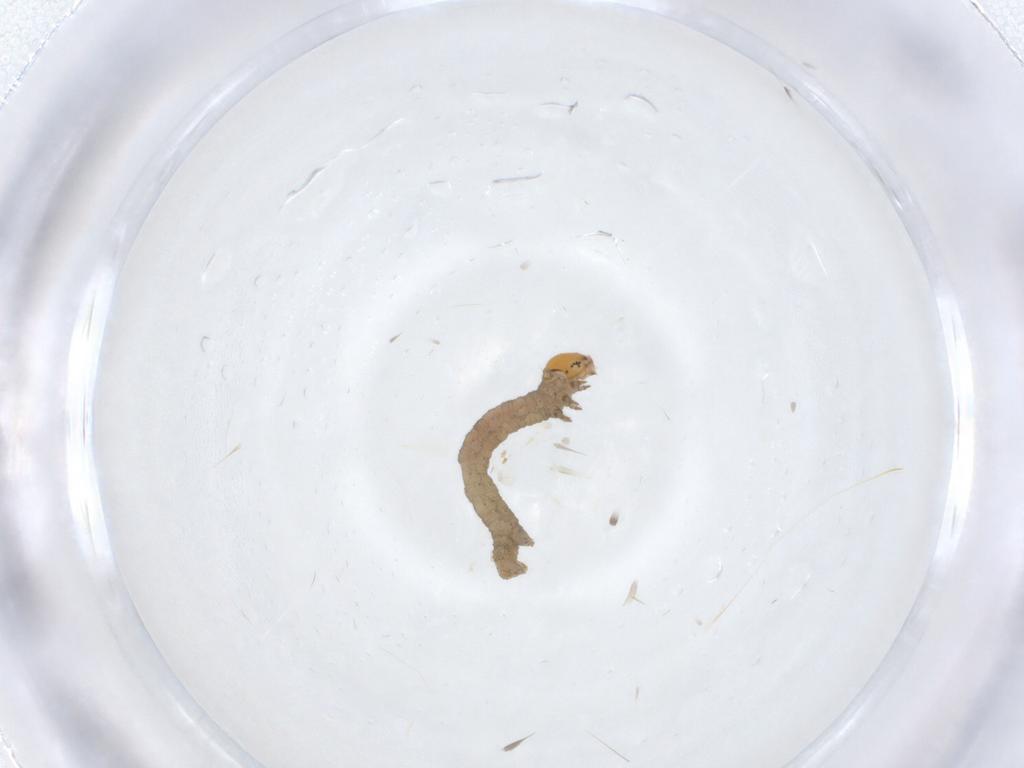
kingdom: Animalia
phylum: Arthropoda
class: Insecta
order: Lepidoptera
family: Geometridae
